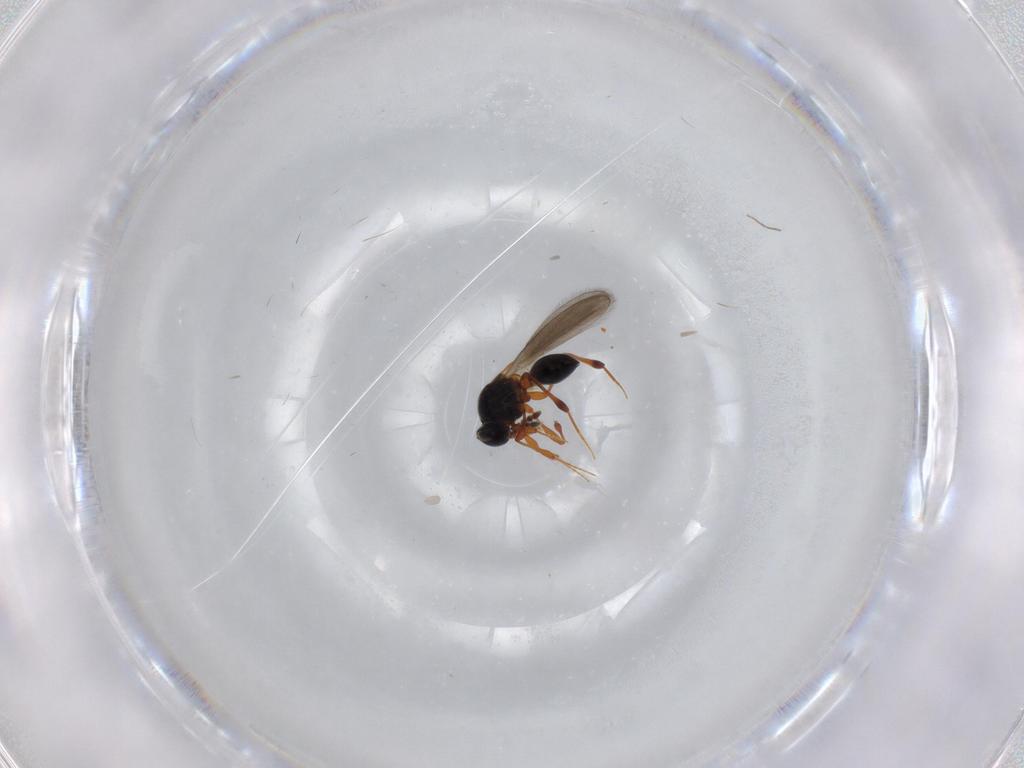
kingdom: Animalia
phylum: Arthropoda
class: Insecta
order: Hymenoptera
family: Platygastridae
